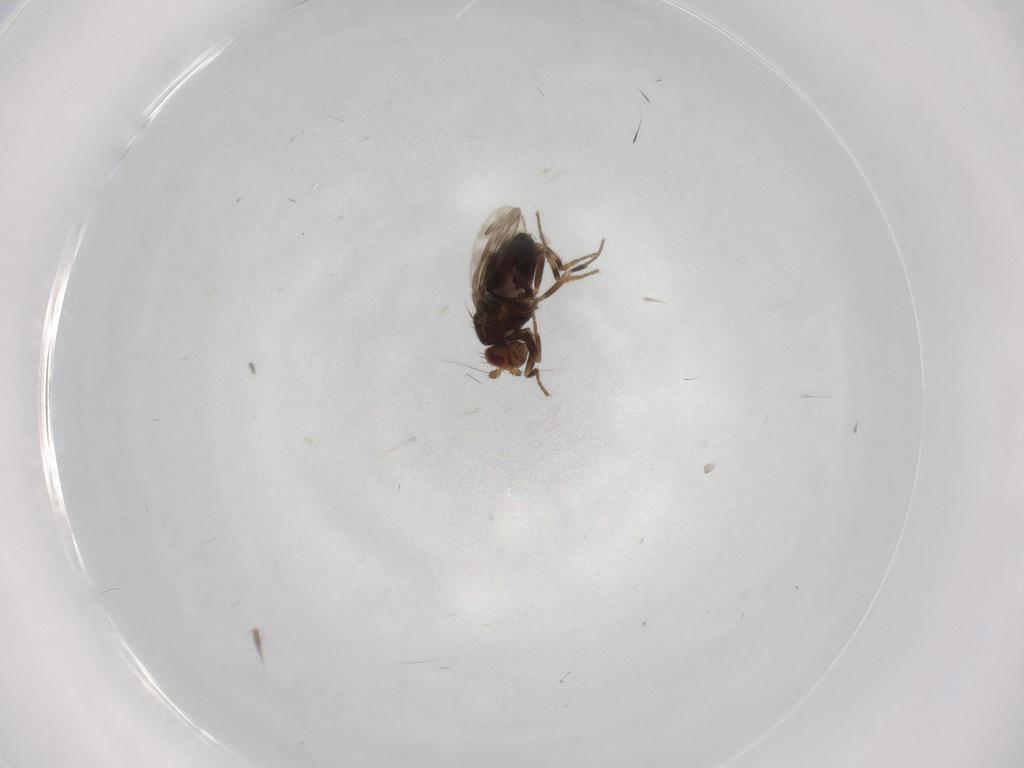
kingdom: Animalia
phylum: Arthropoda
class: Insecta
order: Diptera
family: Sphaeroceridae
